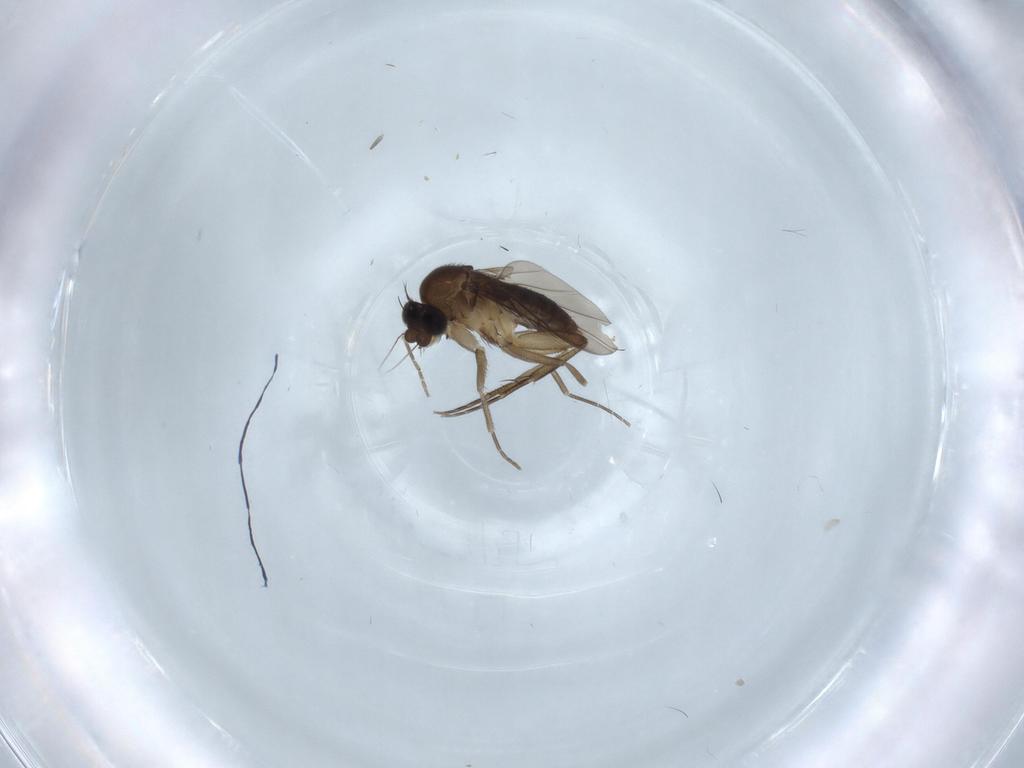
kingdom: Animalia
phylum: Arthropoda
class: Insecta
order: Diptera
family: Phoridae
